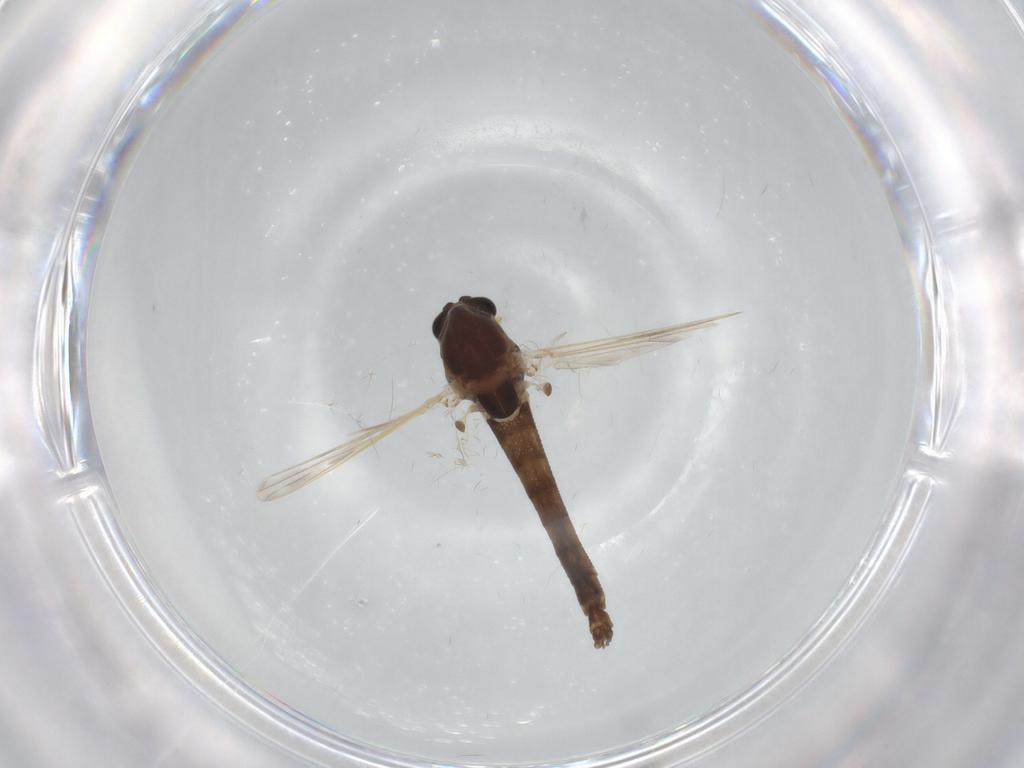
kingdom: Animalia
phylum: Arthropoda
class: Insecta
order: Diptera
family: Chironomidae
